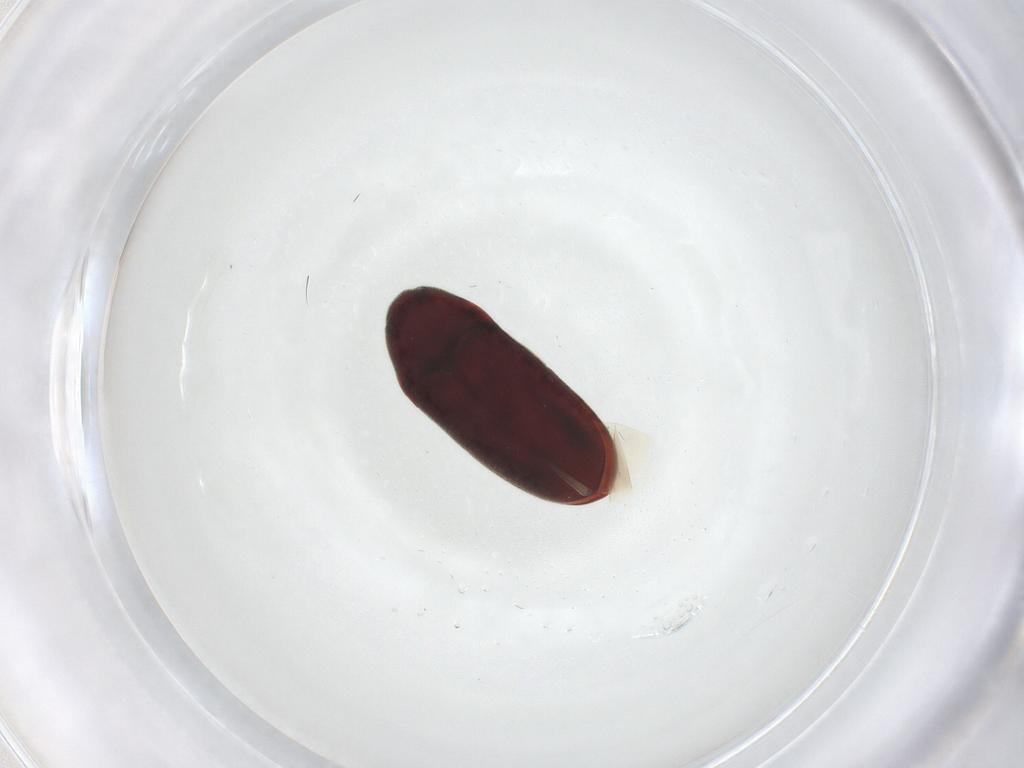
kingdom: Animalia
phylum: Arthropoda
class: Insecta
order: Coleoptera
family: Throscidae
